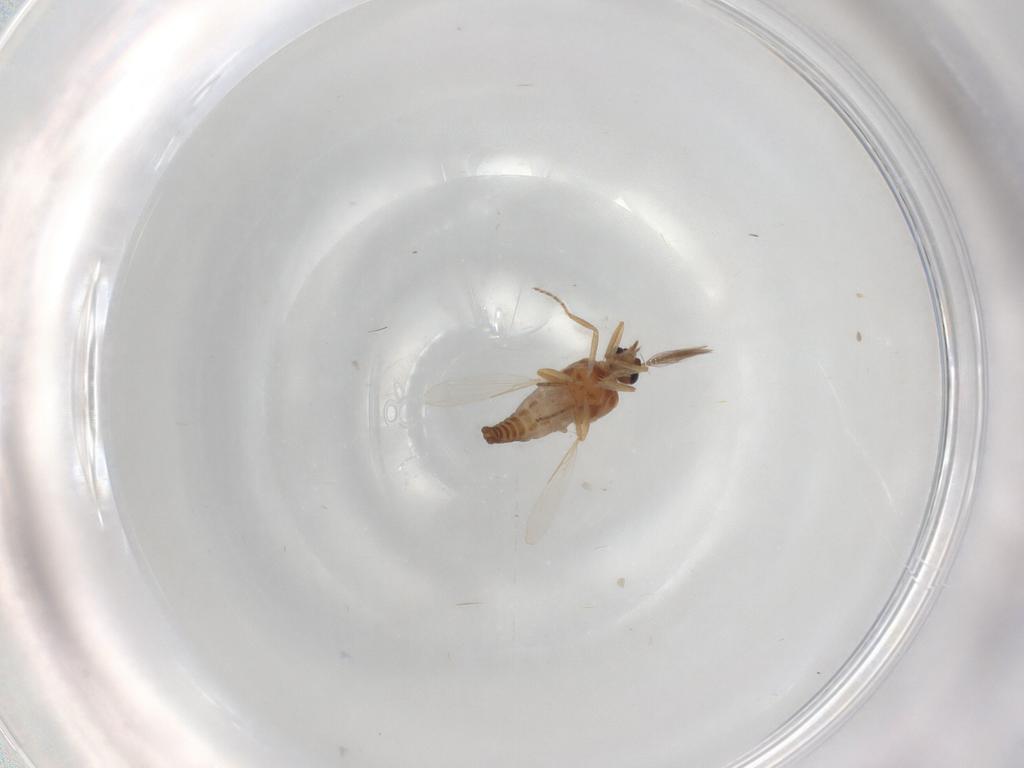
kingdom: Animalia
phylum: Arthropoda
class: Insecta
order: Diptera
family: Ceratopogonidae
